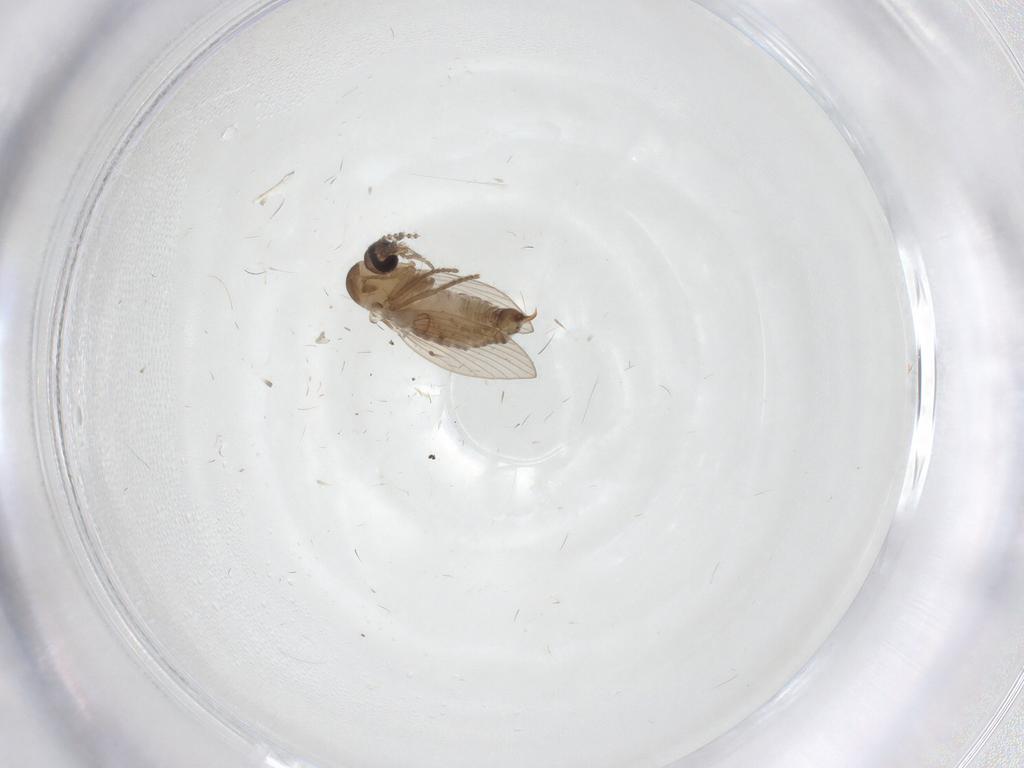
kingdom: Animalia
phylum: Arthropoda
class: Insecta
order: Diptera
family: Psychodidae
